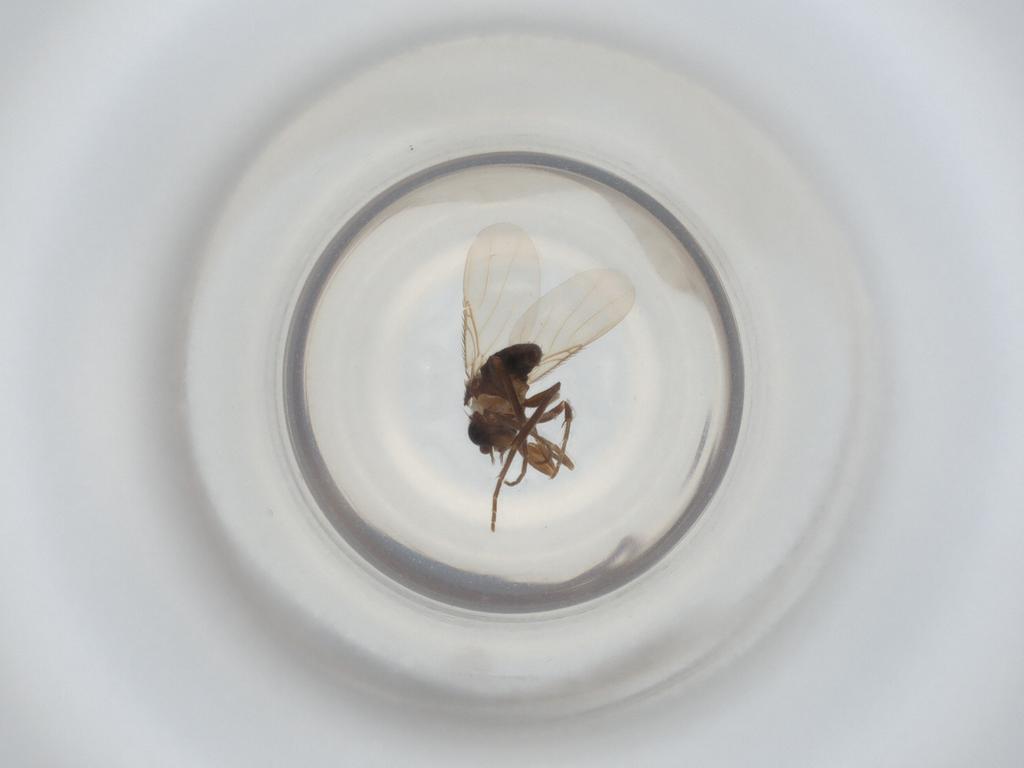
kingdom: Animalia
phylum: Arthropoda
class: Insecta
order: Diptera
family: Phoridae
